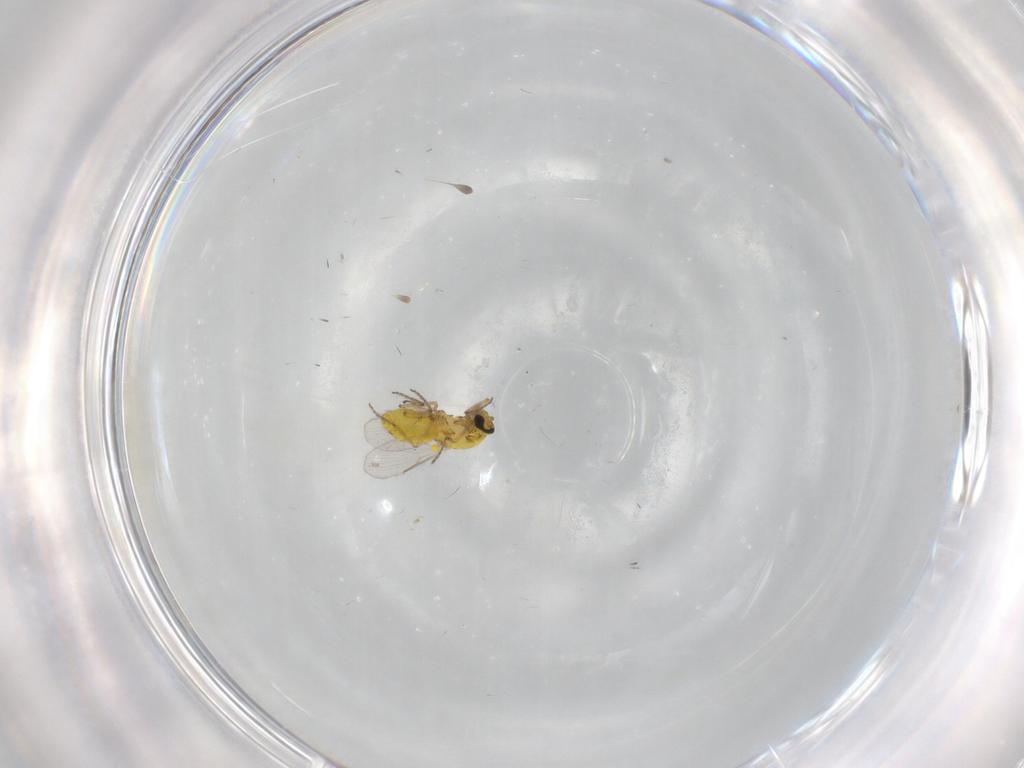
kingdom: Animalia
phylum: Arthropoda
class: Insecta
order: Diptera
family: Ceratopogonidae
